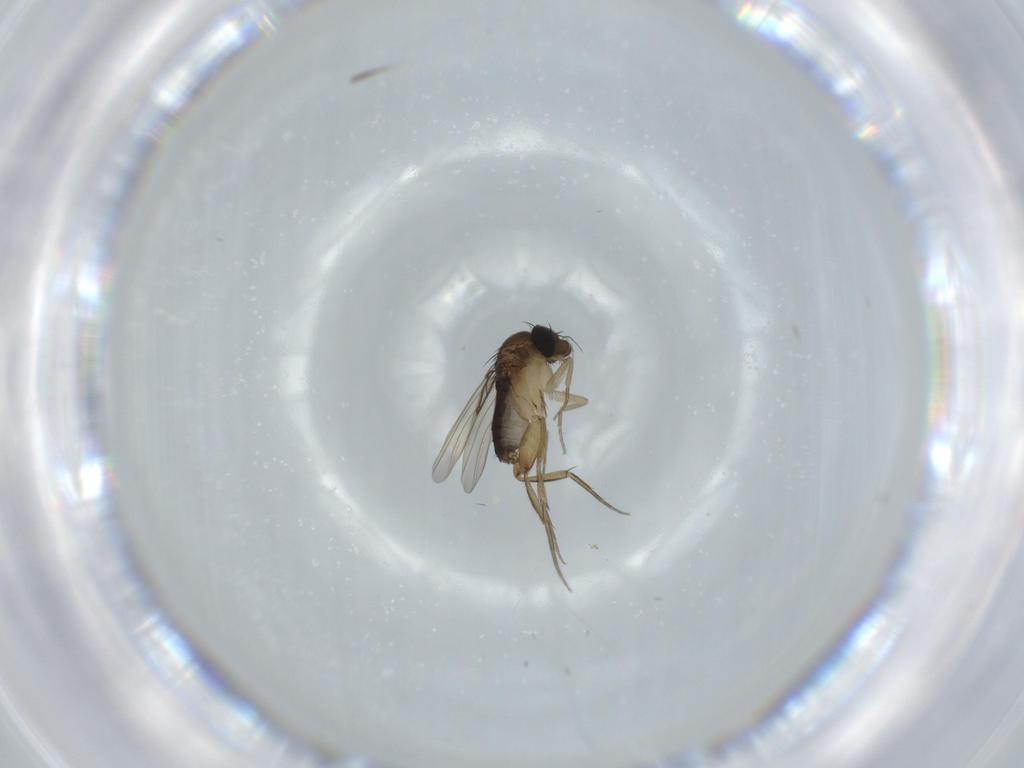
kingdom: Animalia
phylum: Arthropoda
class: Insecta
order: Diptera
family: Phoridae
